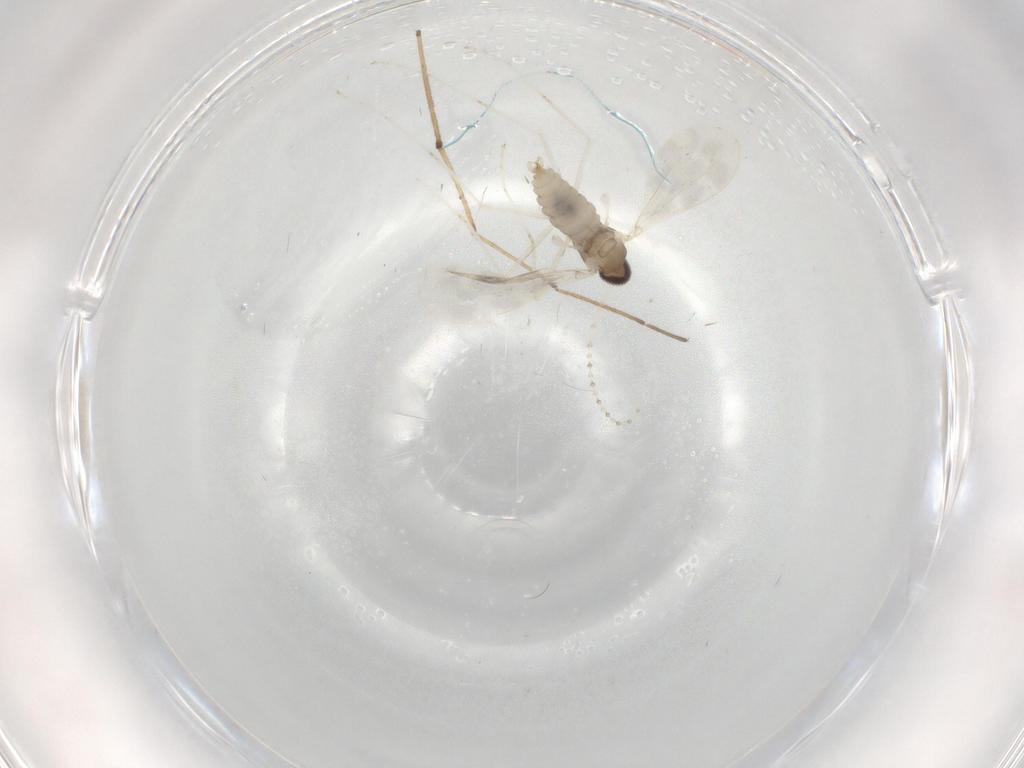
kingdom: Animalia
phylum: Arthropoda
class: Insecta
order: Diptera
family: Chironomidae
